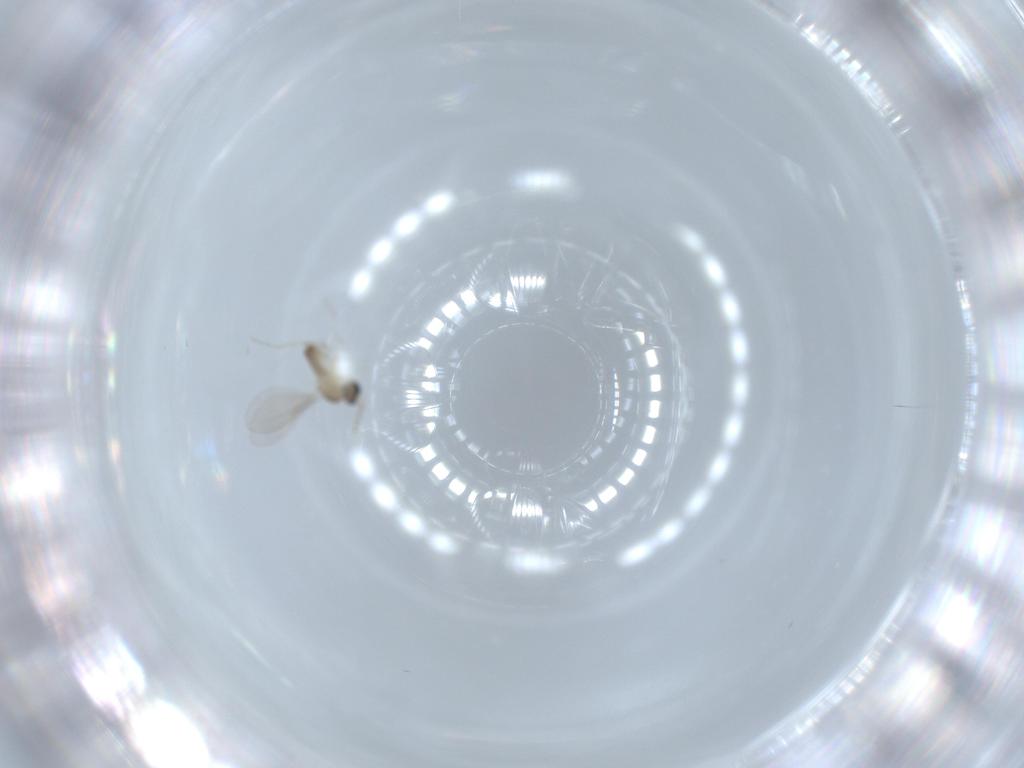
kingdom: Animalia
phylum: Arthropoda
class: Insecta
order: Diptera
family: Cecidomyiidae
